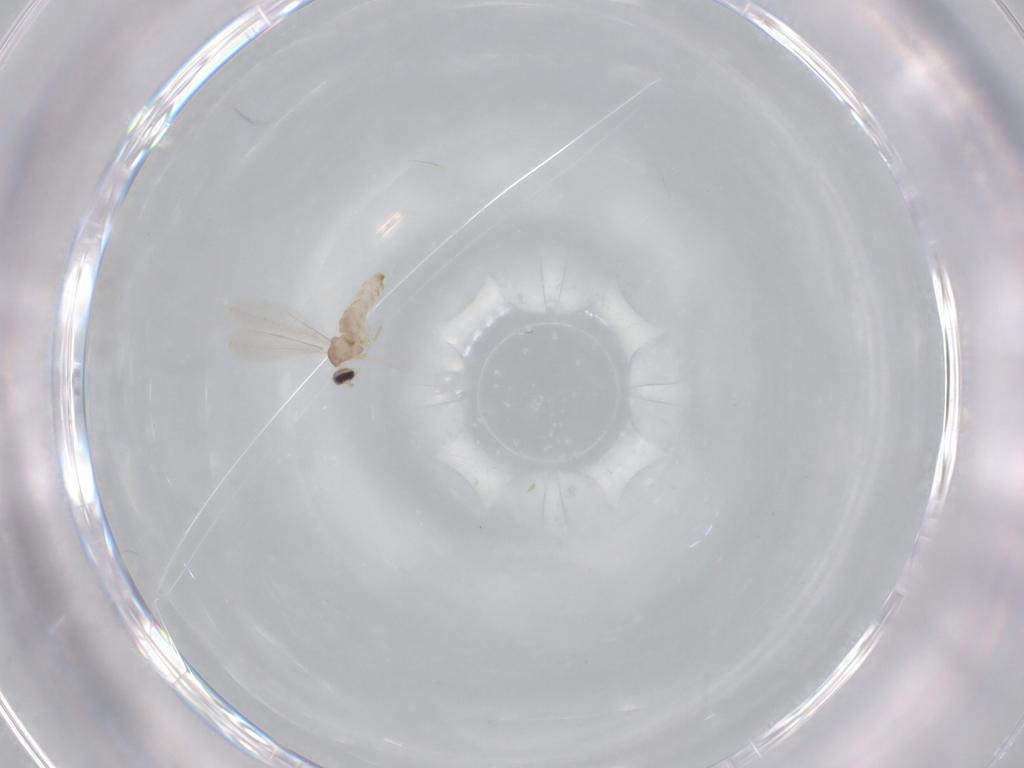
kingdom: Animalia
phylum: Arthropoda
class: Insecta
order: Diptera
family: Cecidomyiidae
